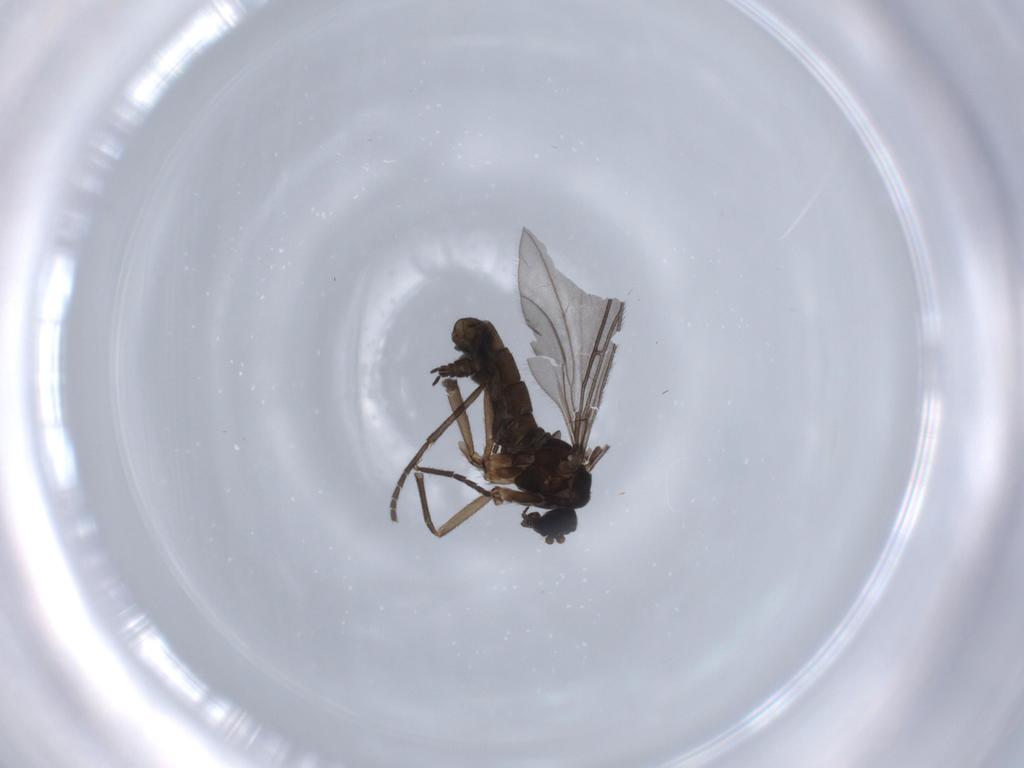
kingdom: Animalia
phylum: Arthropoda
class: Insecta
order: Diptera
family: Sciaridae
